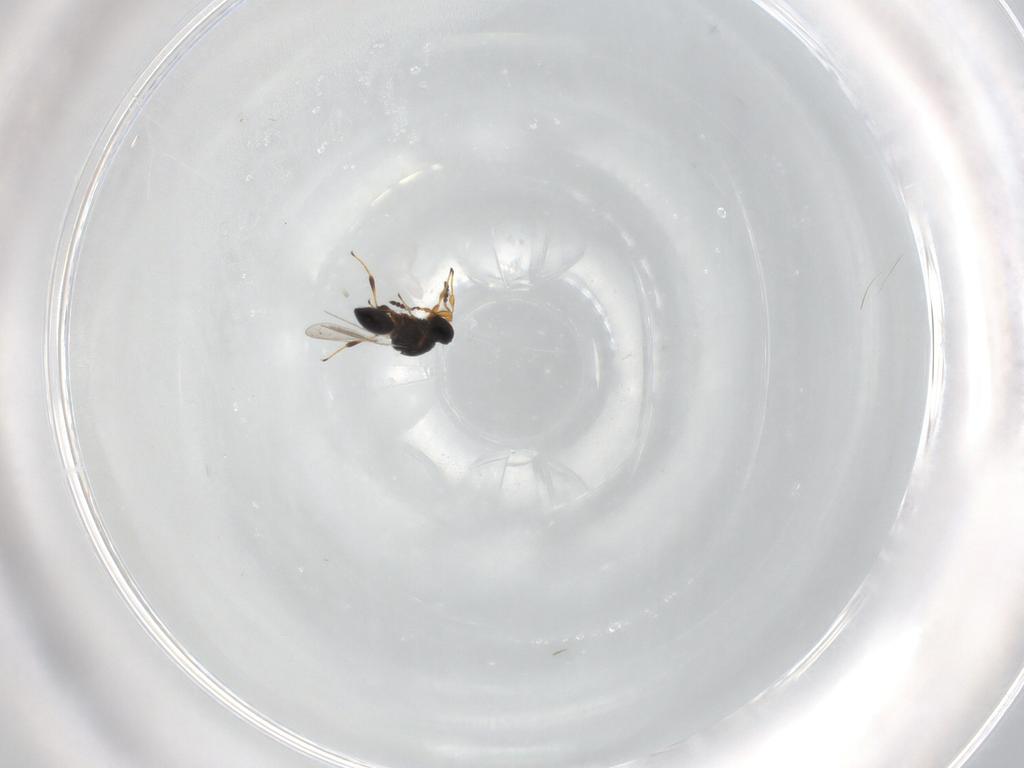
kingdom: Animalia
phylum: Arthropoda
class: Insecta
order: Hymenoptera
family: Platygastridae
